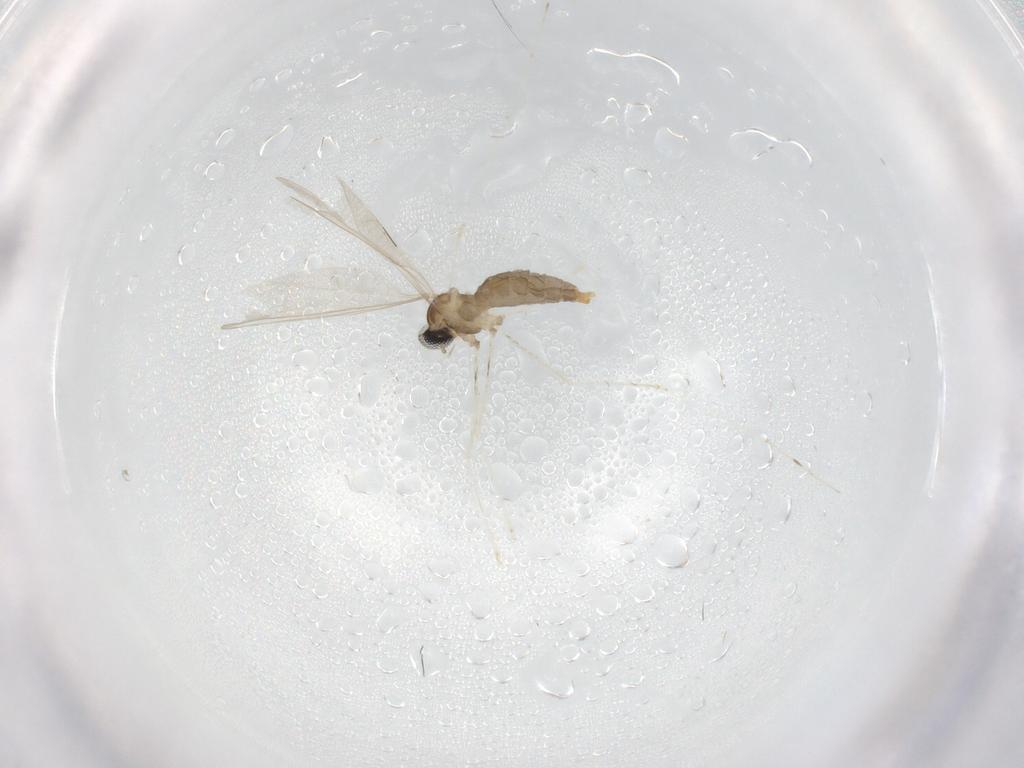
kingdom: Animalia
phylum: Arthropoda
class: Insecta
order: Diptera
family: Cecidomyiidae
